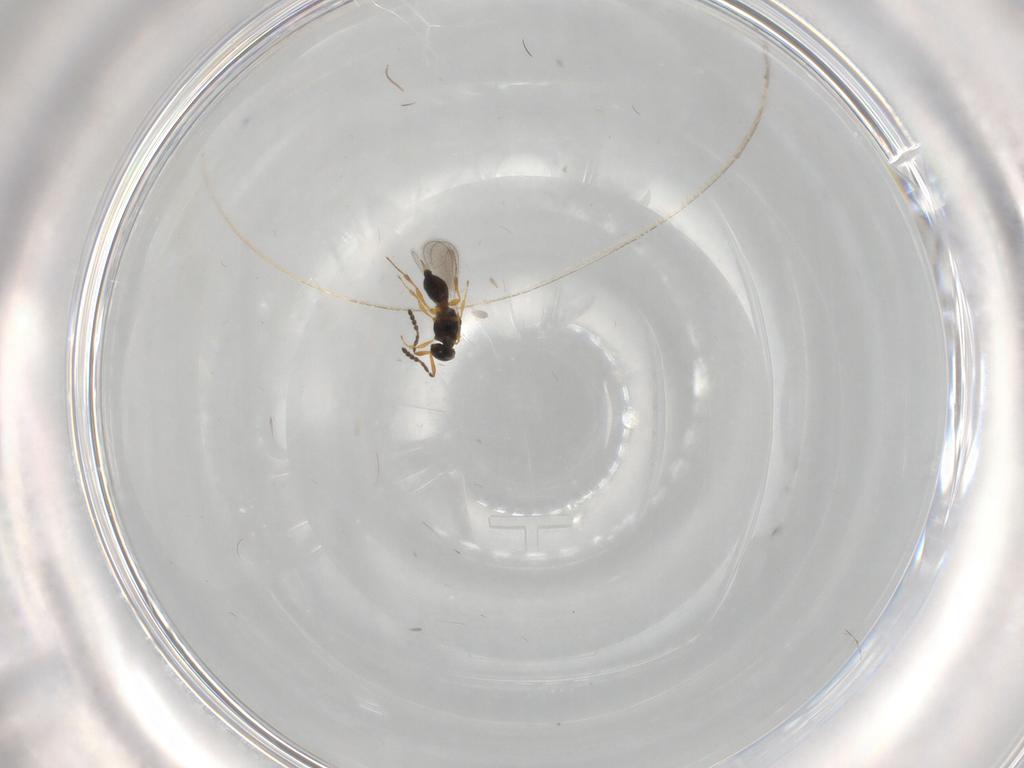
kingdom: Animalia
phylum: Arthropoda
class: Insecta
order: Hymenoptera
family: Platygastridae
